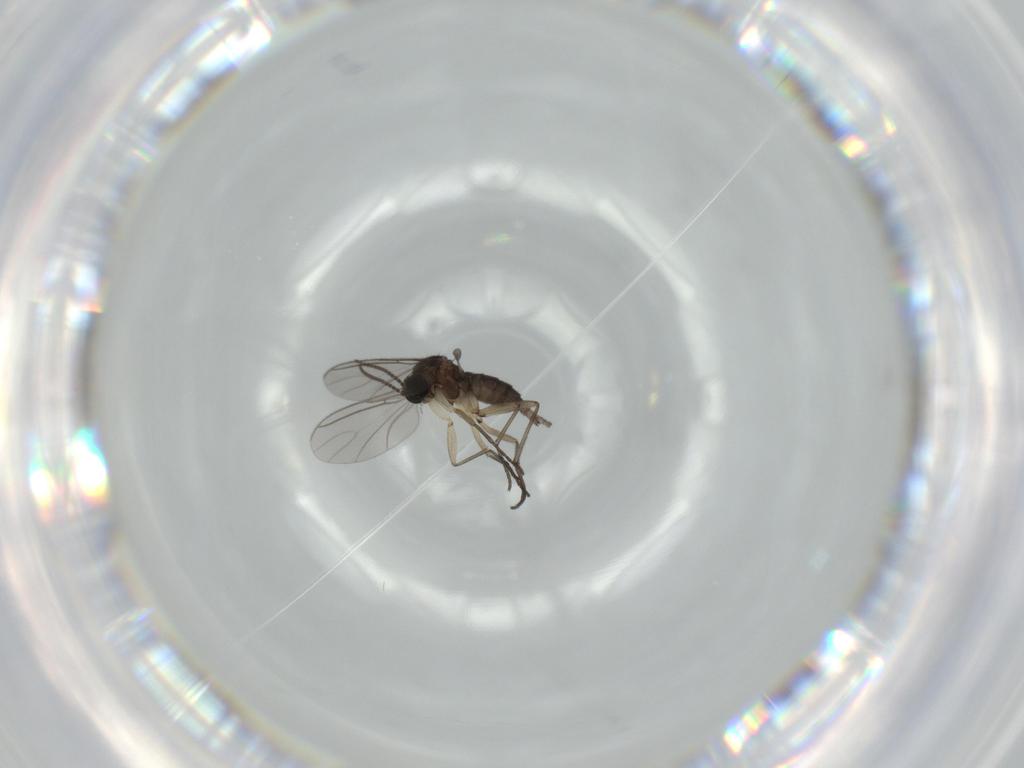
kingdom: Animalia
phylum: Arthropoda
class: Insecta
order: Diptera
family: Sciaridae
